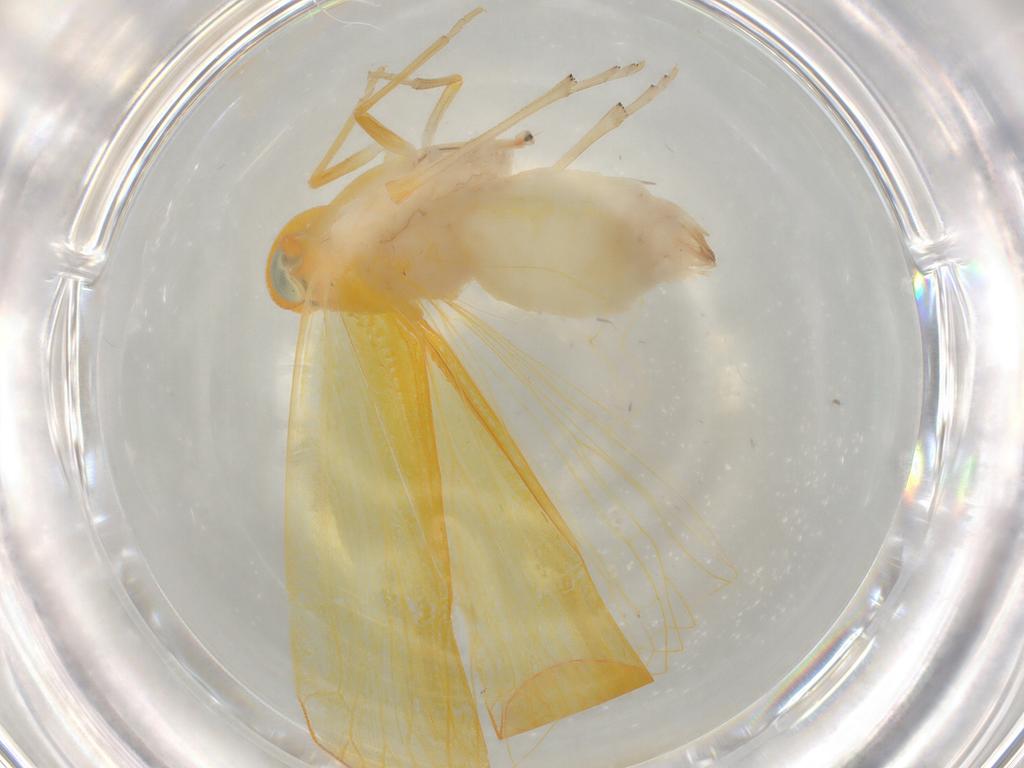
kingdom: Animalia
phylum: Arthropoda
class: Insecta
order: Hemiptera
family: Derbidae
